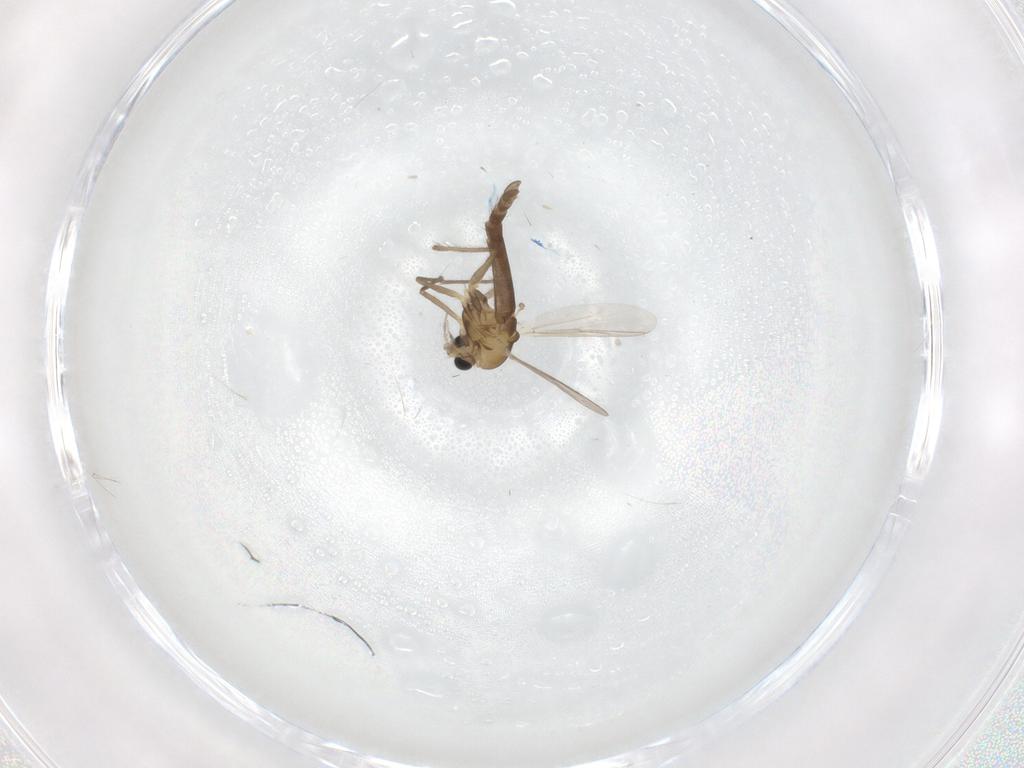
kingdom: Animalia
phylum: Arthropoda
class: Insecta
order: Diptera
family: Chironomidae
